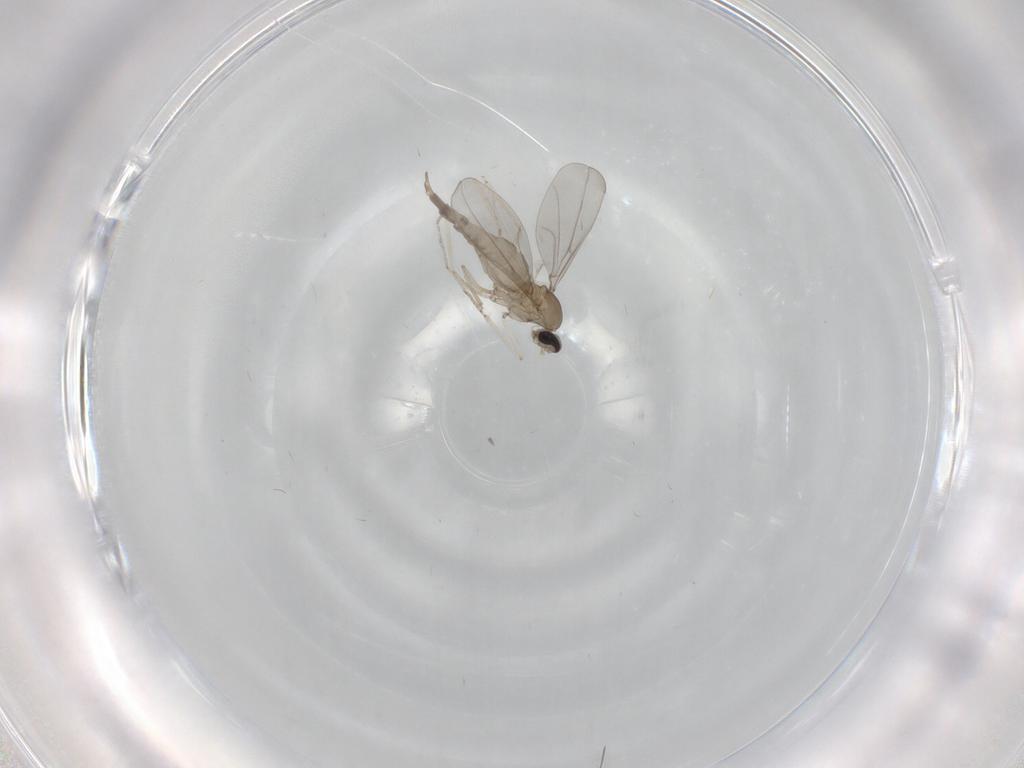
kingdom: Animalia
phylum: Arthropoda
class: Insecta
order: Diptera
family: Cecidomyiidae
